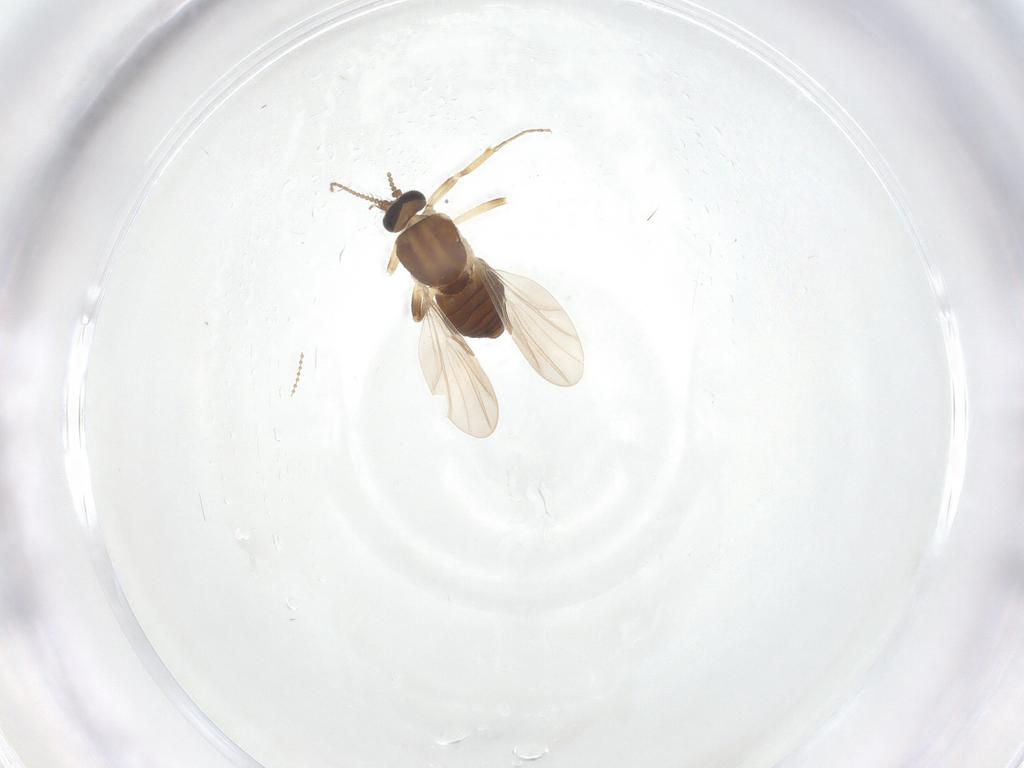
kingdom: Animalia
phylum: Arthropoda
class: Insecta
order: Diptera
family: Ceratopogonidae
